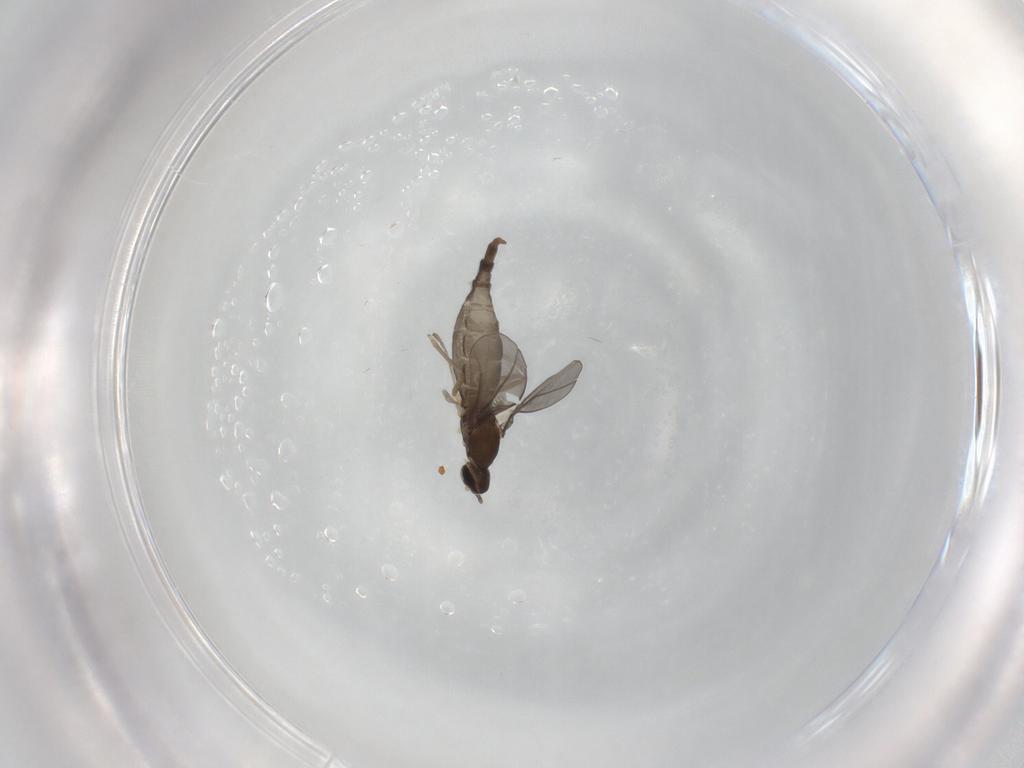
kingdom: Animalia
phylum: Arthropoda
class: Insecta
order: Diptera
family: Cecidomyiidae
